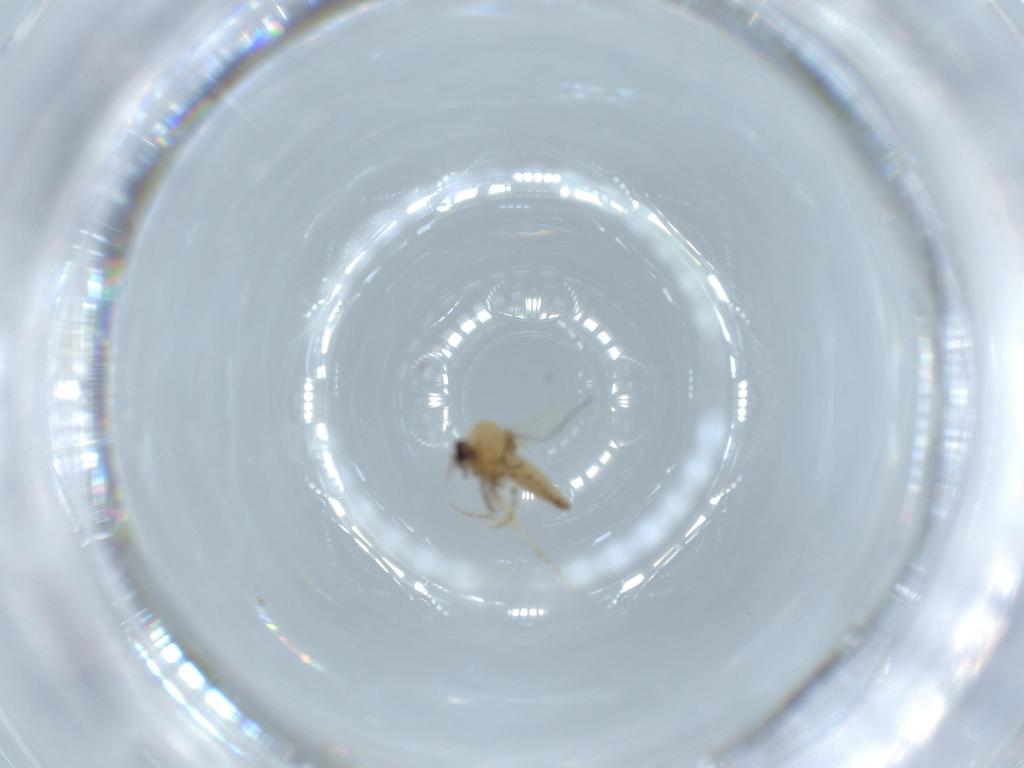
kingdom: Animalia
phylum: Arthropoda
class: Insecta
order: Diptera
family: Ceratopogonidae
